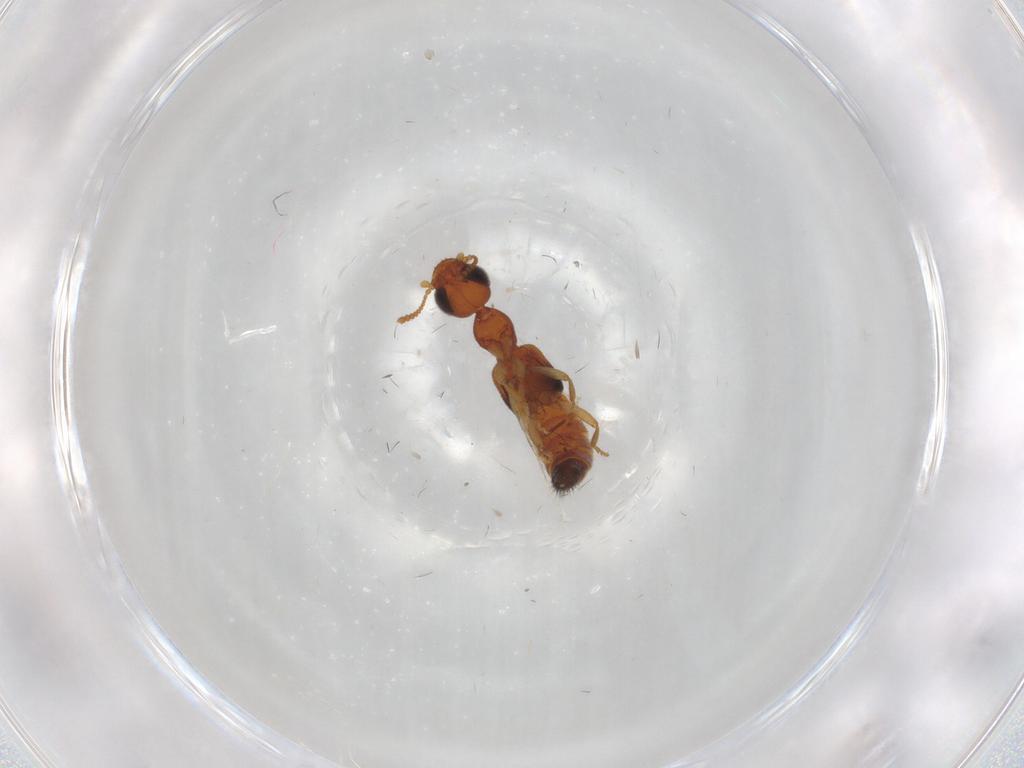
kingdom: Animalia
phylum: Arthropoda
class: Insecta
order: Coleoptera
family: Staphylinidae
